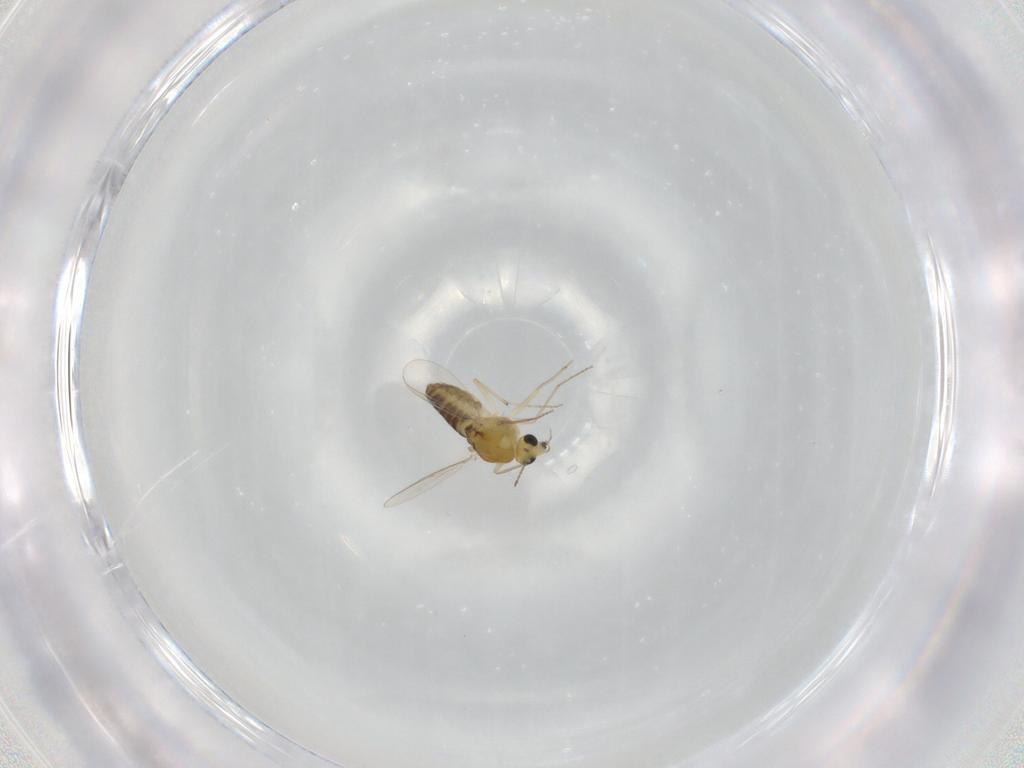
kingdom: Animalia
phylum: Arthropoda
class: Insecta
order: Diptera
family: Chironomidae
